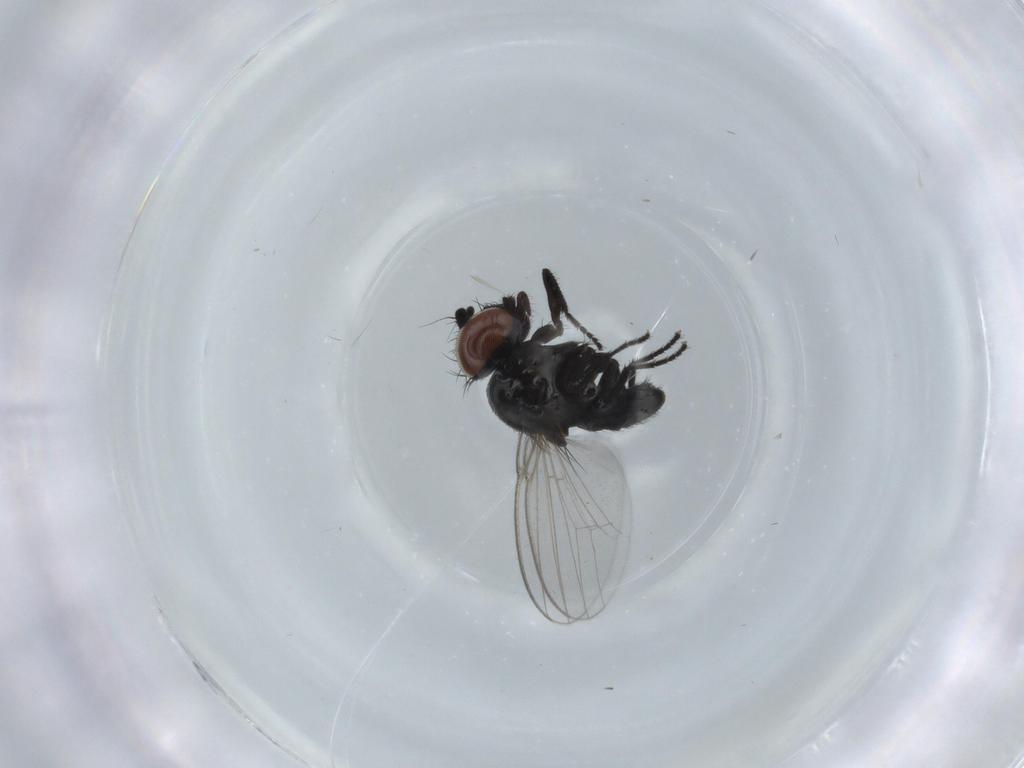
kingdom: Animalia
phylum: Arthropoda
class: Insecta
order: Diptera
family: Milichiidae
